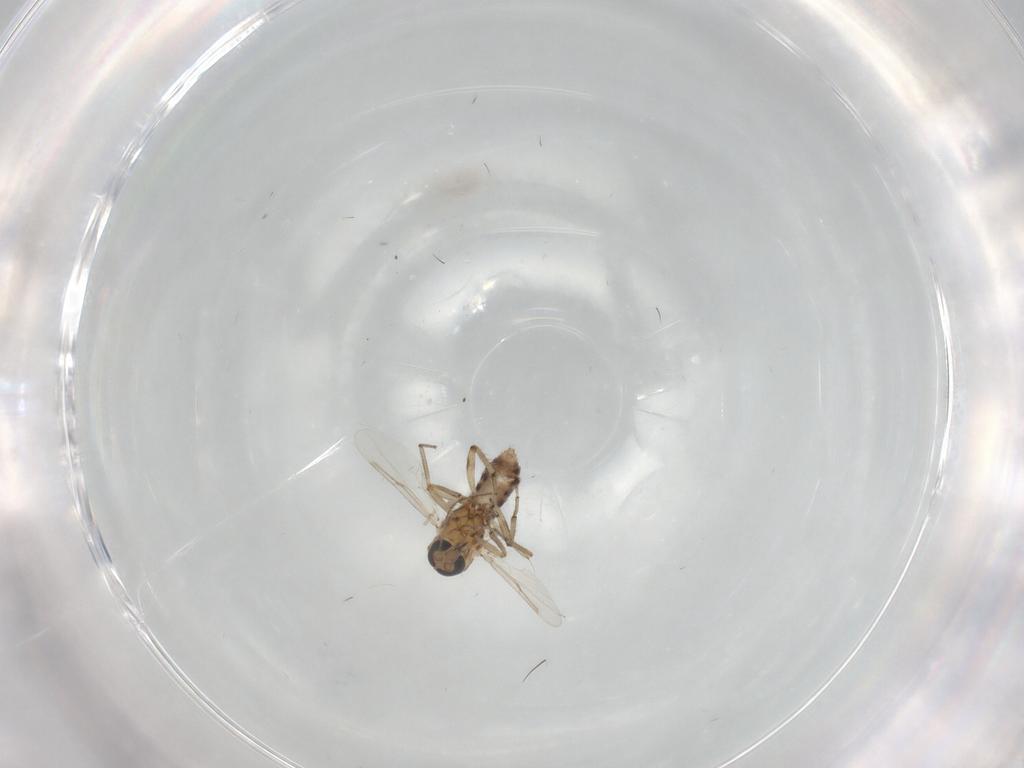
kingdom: Animalia
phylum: Arthropoda
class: Insecta
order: Diptera
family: Ceratopogonidae
